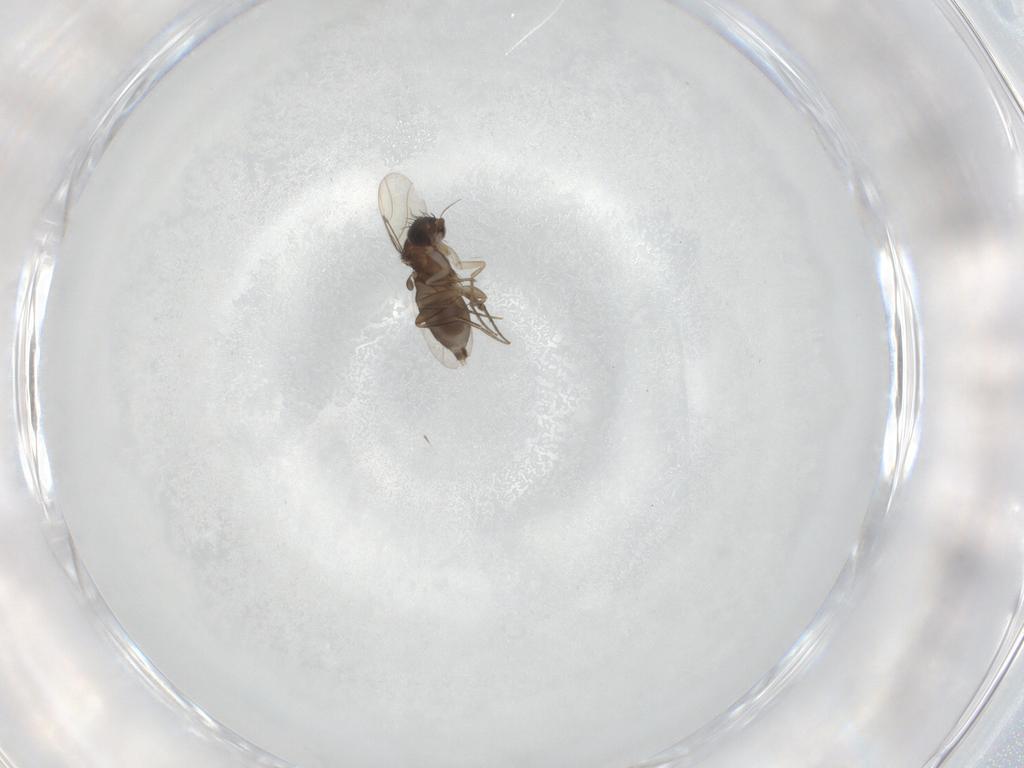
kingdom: Animalia
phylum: Arthropoda
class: Insecta
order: Diptera
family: Phoridae
